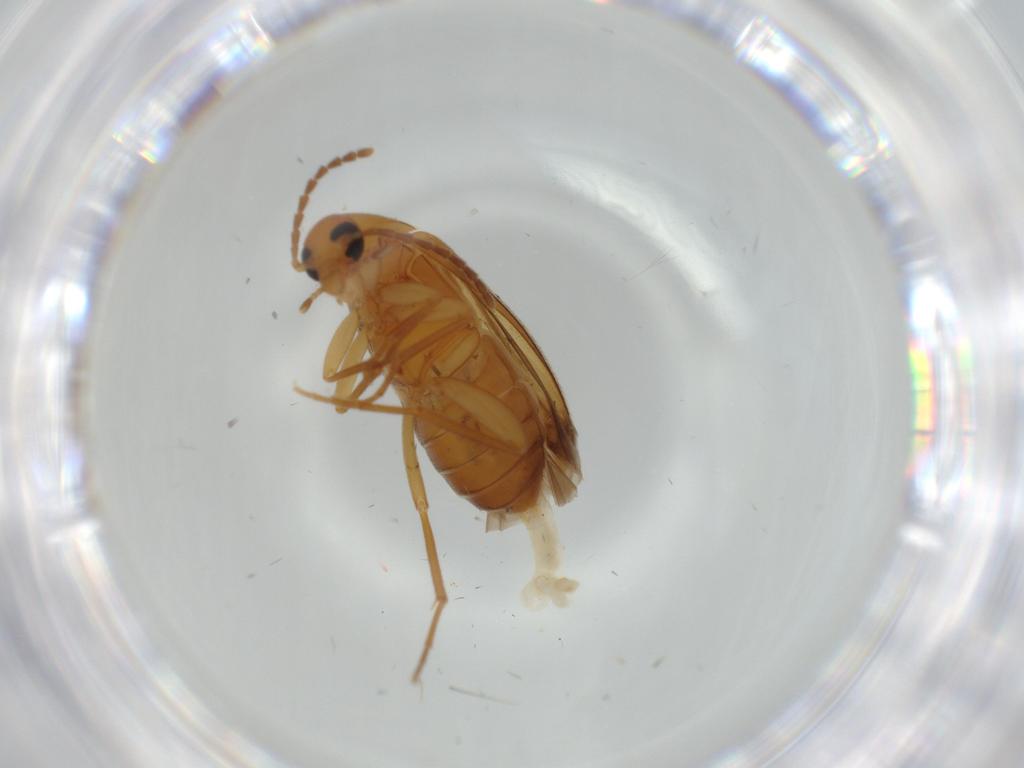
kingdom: Animalia
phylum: Arthropoda
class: Insecta
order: Coleoptera
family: Scraptiidae
